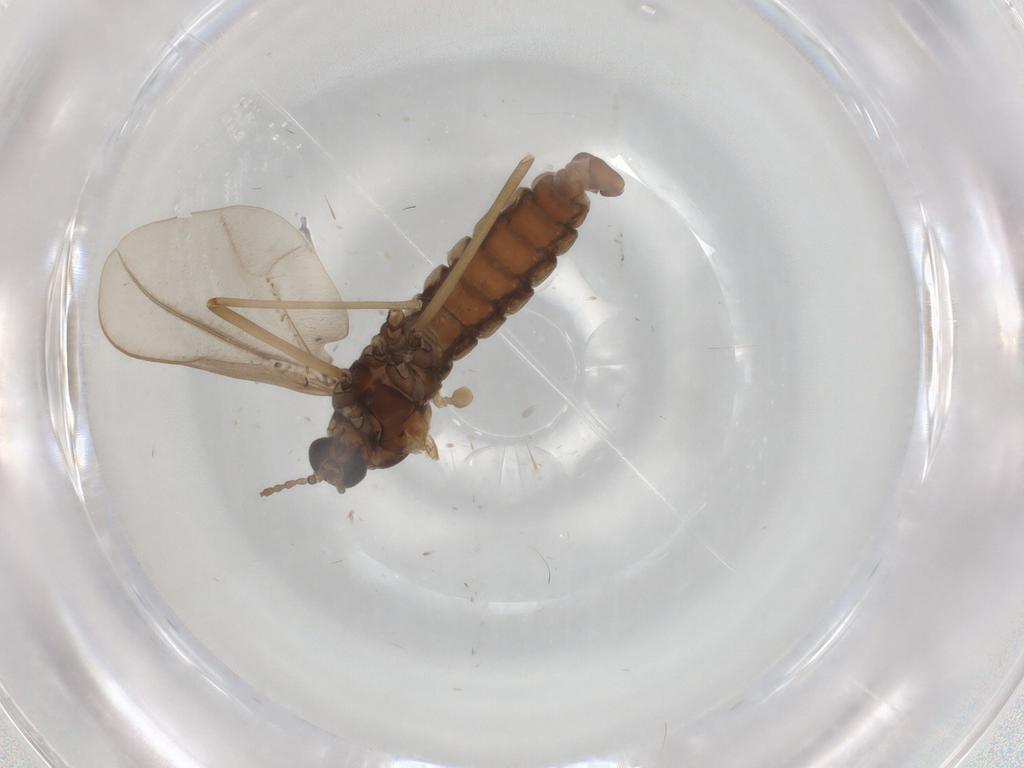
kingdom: Animalia
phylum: Arthropoda
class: Insecta
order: Diptera
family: Cecidomyiidae
